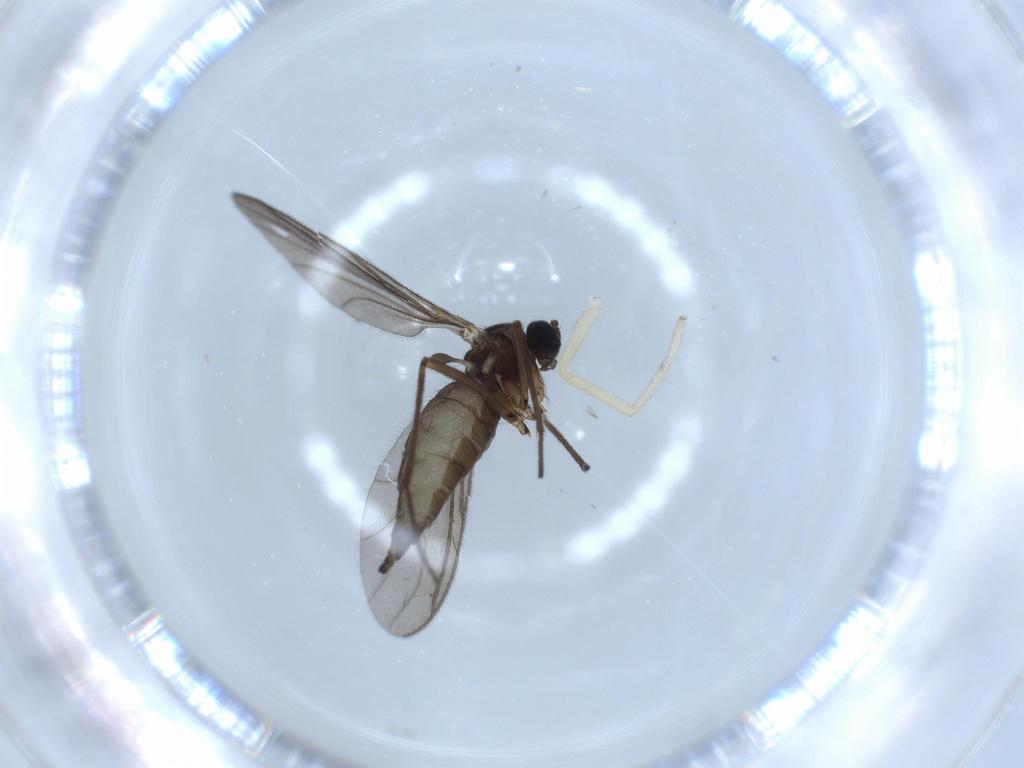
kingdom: Animalia
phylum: Arthropoda
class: Insecta
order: Diptera
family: Sciaridae
